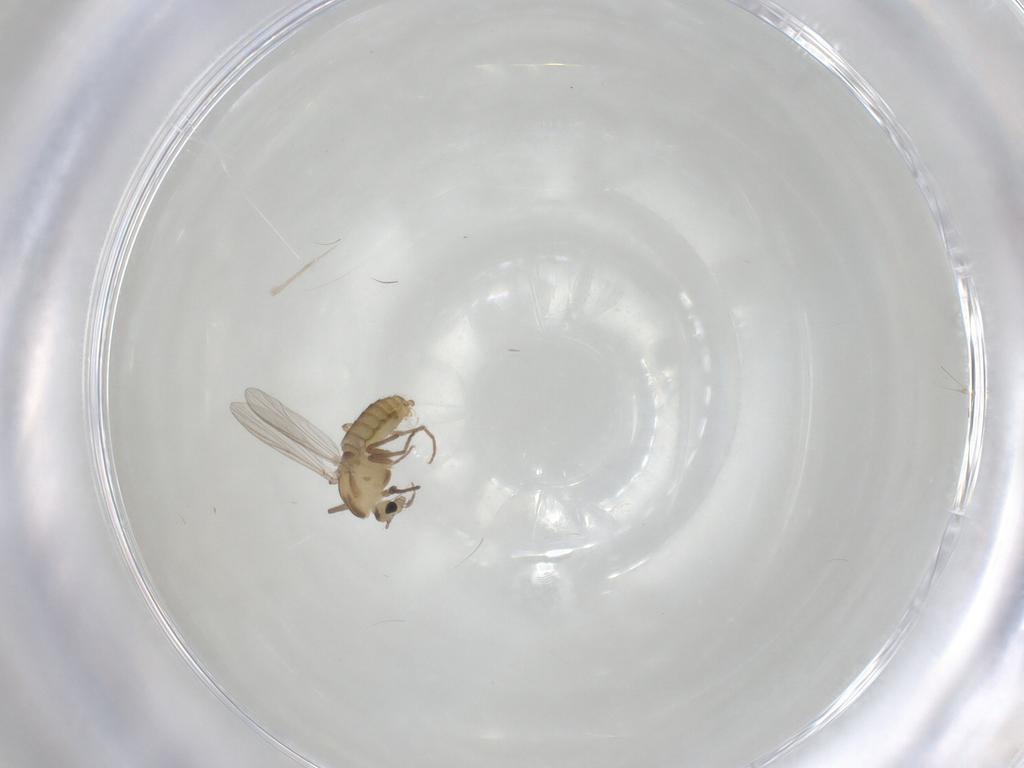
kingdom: Animalia
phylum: Arthropoda
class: Insecta
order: Diptera
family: Chironomidae
